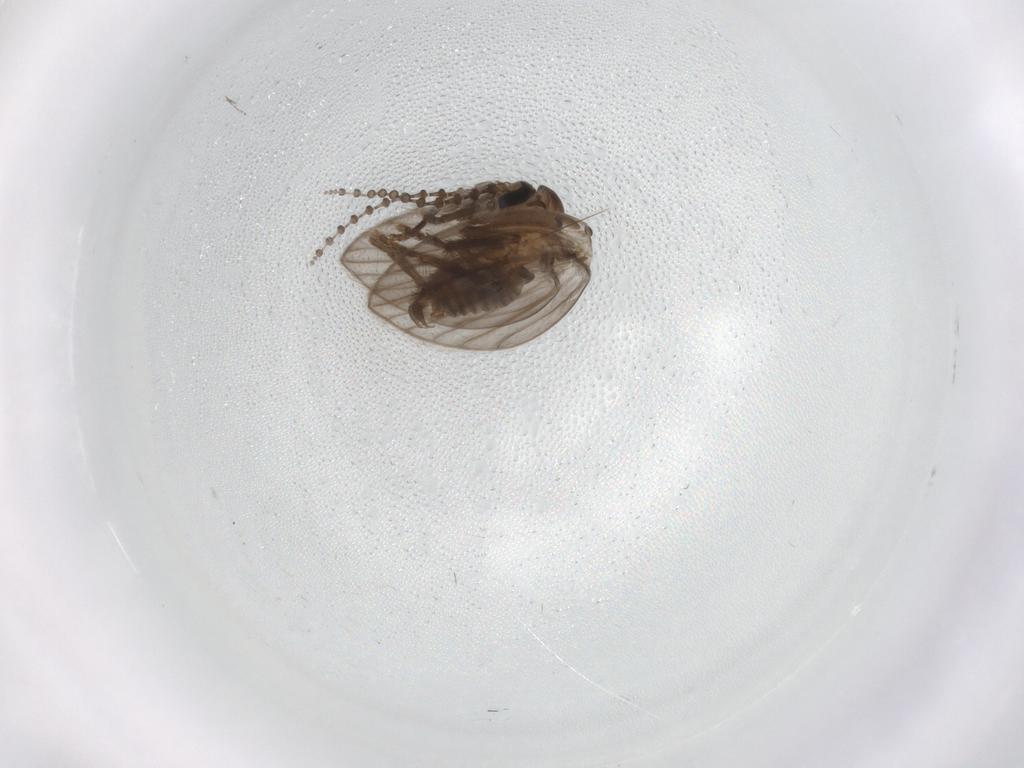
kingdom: Animalia
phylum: Arthropoda
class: Insecta
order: Diptera
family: Psychodidae
